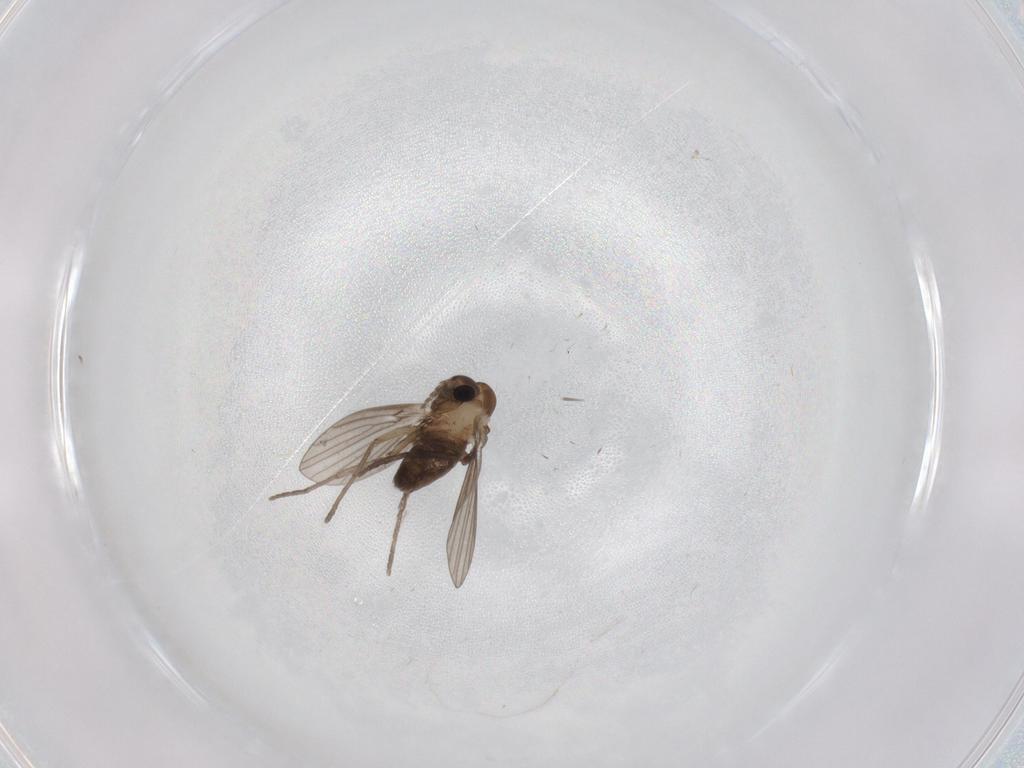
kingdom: Animalia
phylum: Arthropoda
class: Insecta
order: Diptera
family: Psychodidae
